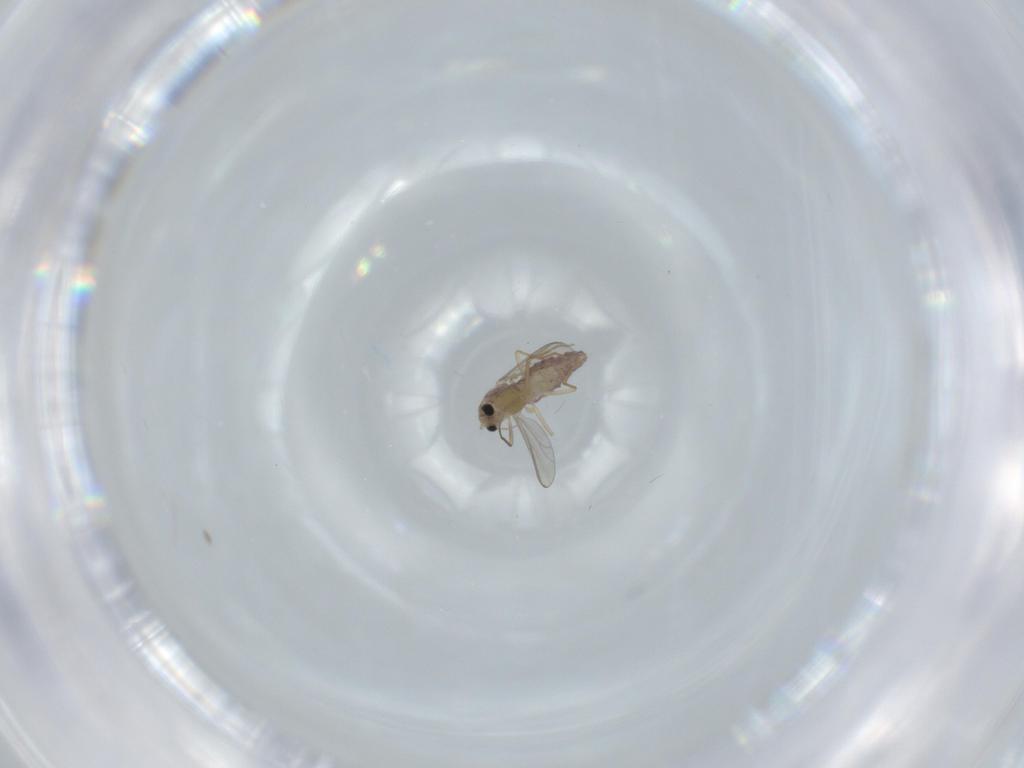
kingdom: Animalia
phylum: Arthropoda
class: Insecta
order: Diptera
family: Chironomidae
